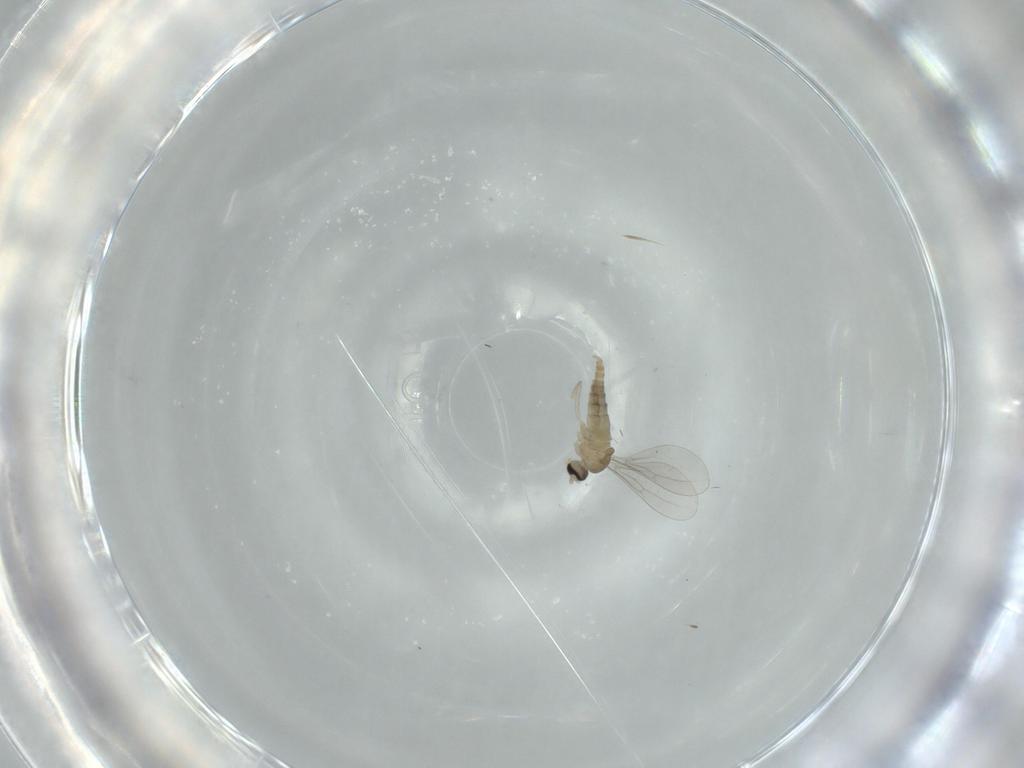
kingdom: Animalia
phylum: Arthropoda
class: Insecta
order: Diptera
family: Cecidomyiidae
